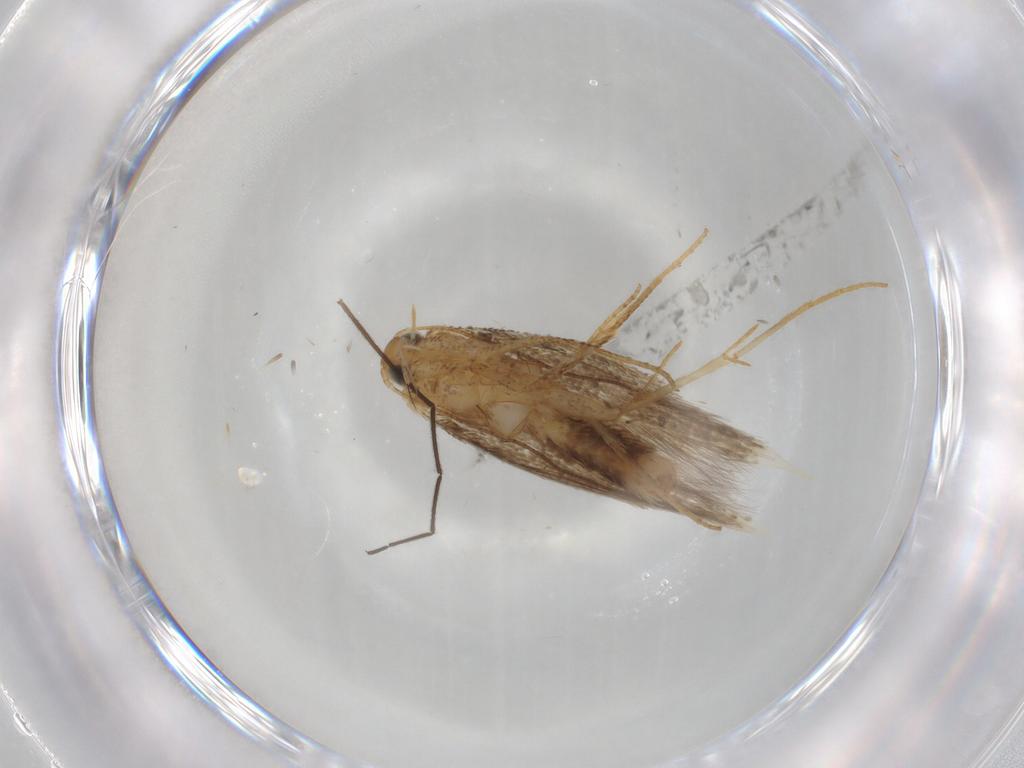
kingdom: Animalia
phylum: Arthropoda
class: Insecta
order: Lepidoptera
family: Tischeriidae
